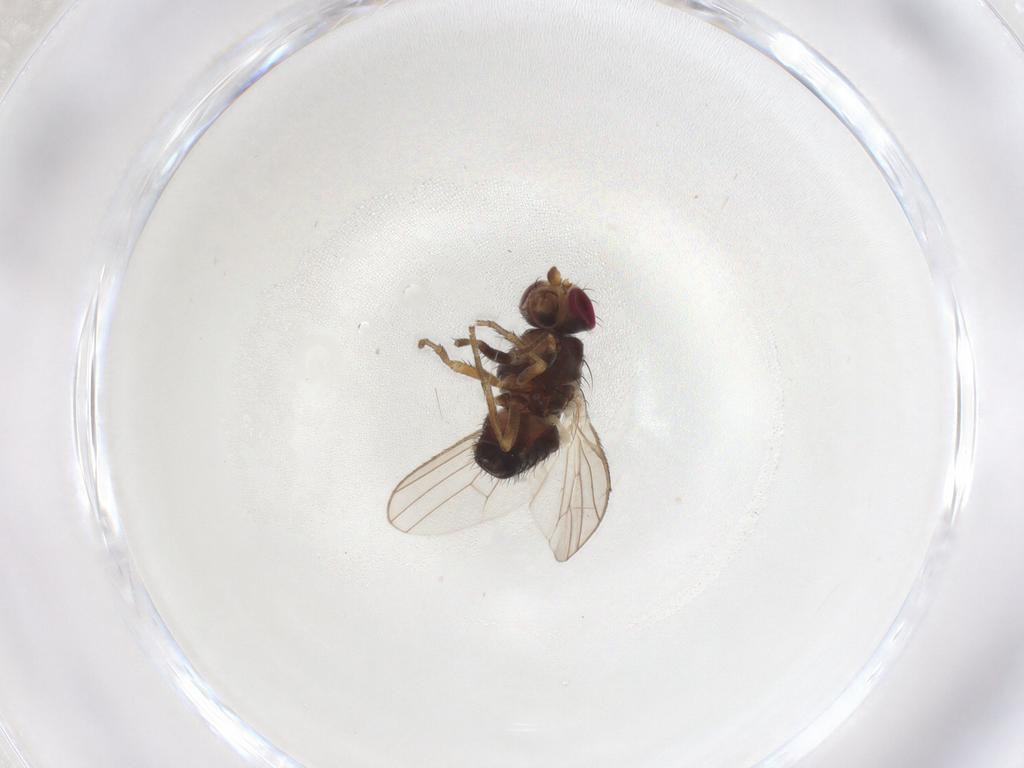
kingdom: Animalia
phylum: Arthropoda
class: Insecta
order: Diptera
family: Heleomyzidae
